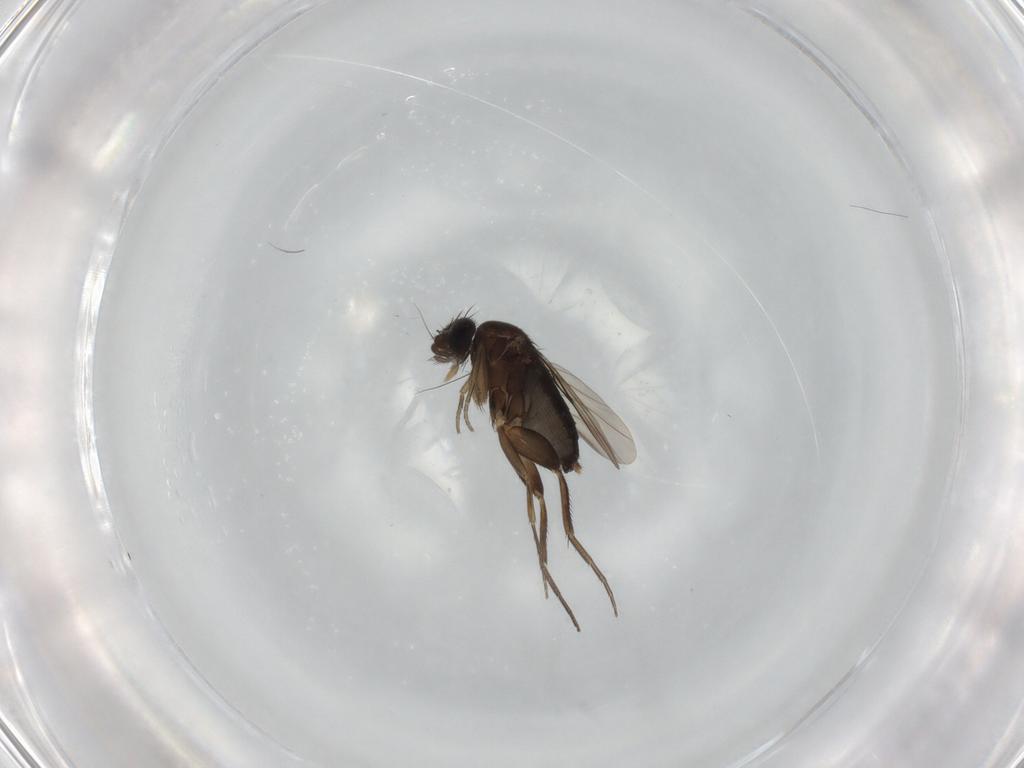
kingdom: Animalia
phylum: Arthropoda
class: Insecta
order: Diptera
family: Phoridae
